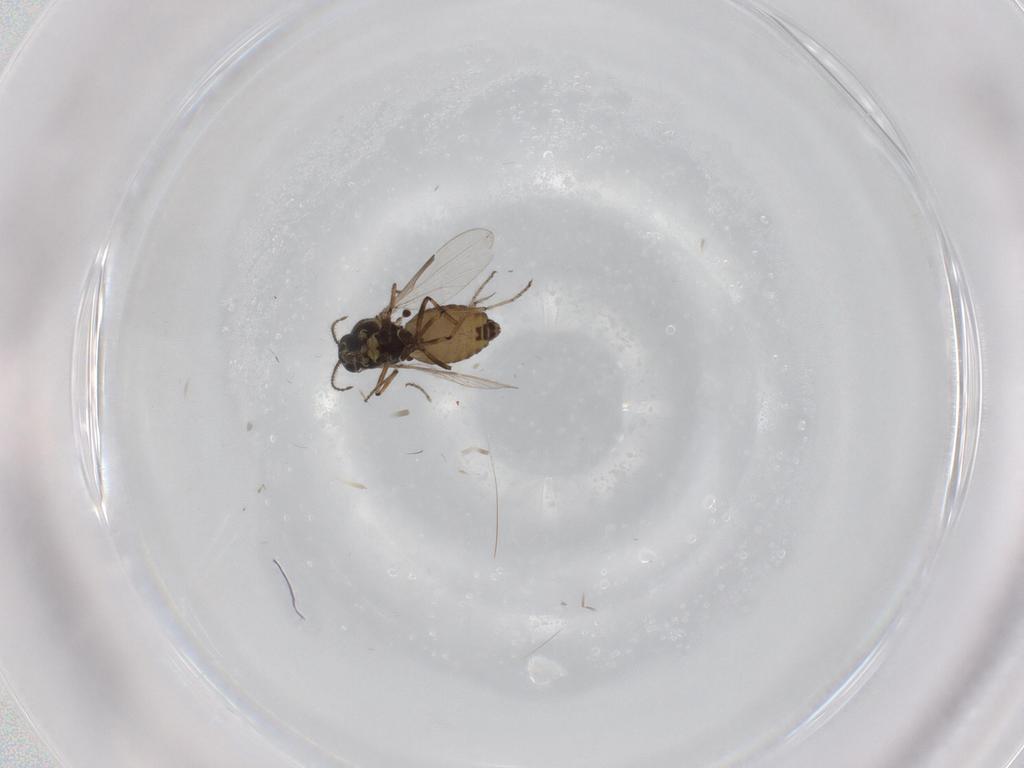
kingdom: Animalia
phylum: Arthropoda
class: Insecta
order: Diptera
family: Ceratopogonidae
